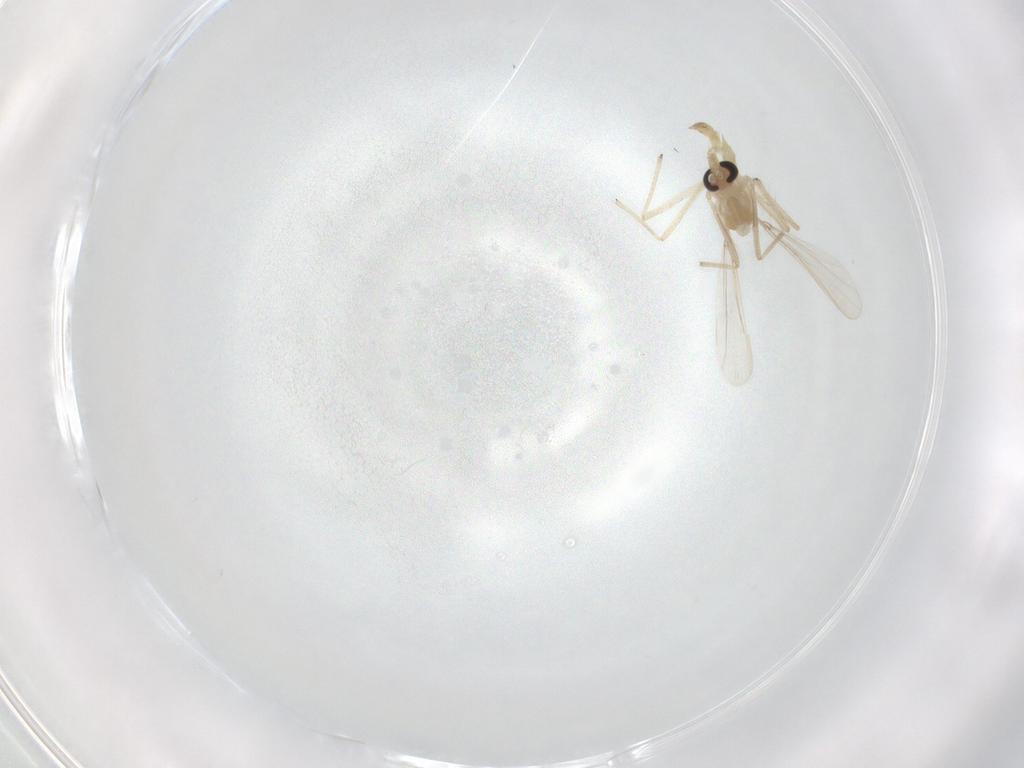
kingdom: Animalia
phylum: Arthropoda
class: Insecta
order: Diptera
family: Chironomidae
